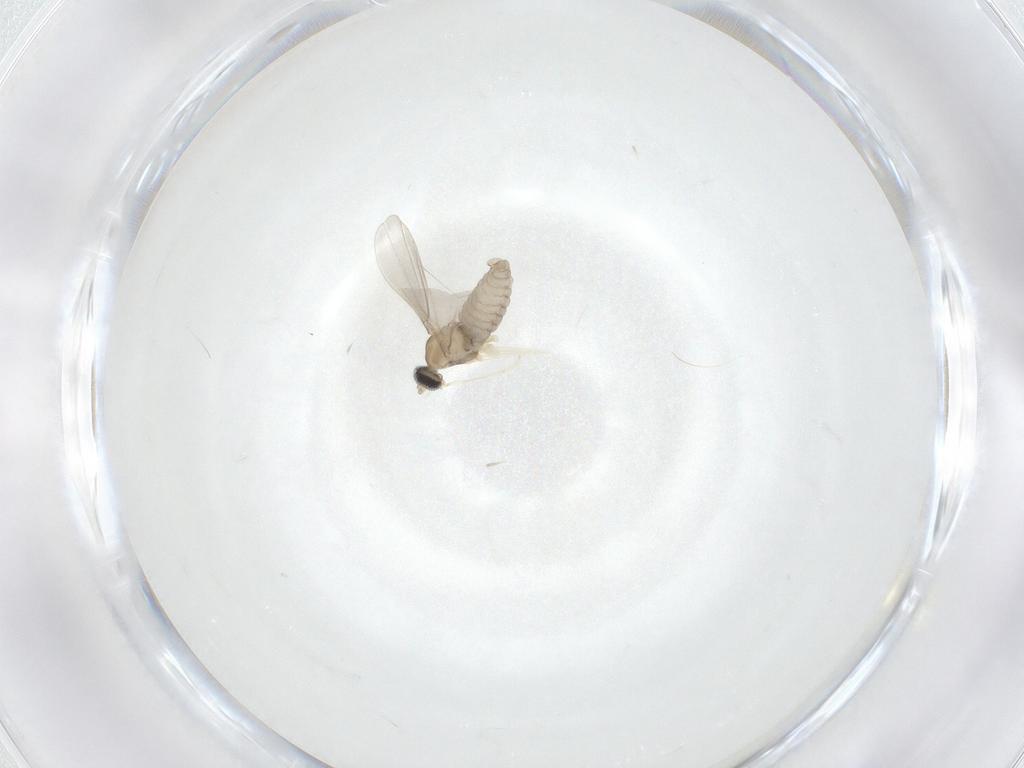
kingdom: Animalia
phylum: Arthropoda
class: Insecta
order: Diptera
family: Cecidomyiidae
